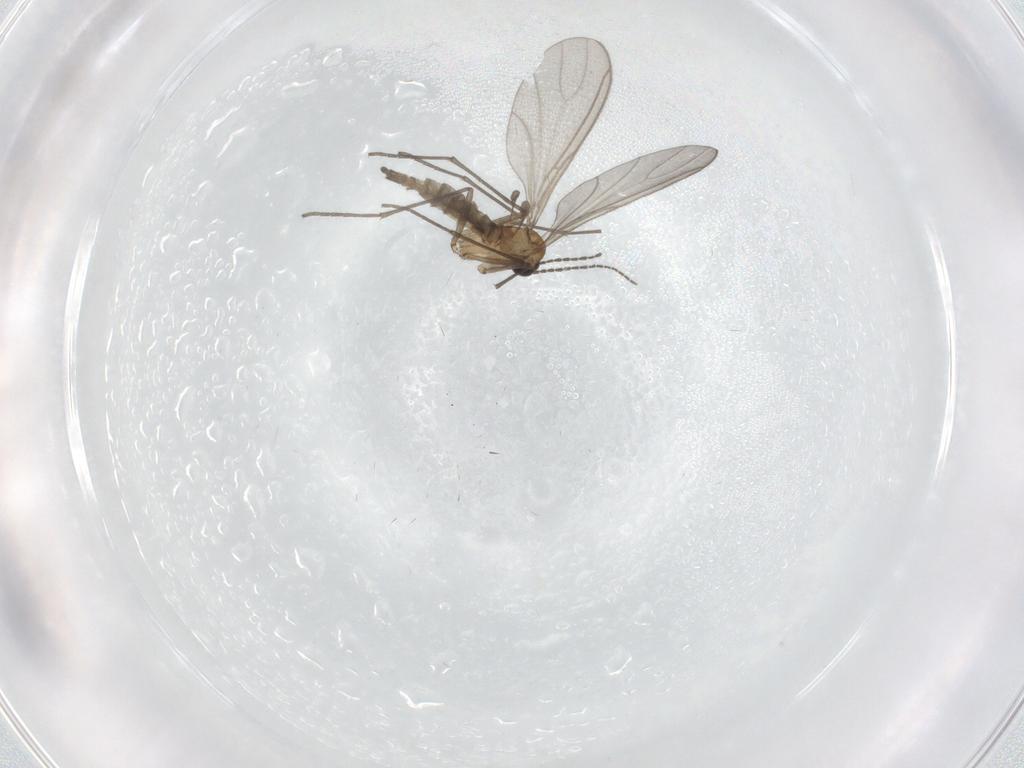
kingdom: Animalia
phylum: Arthropoda
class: Insecta
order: Diptera
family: Sciaridae
